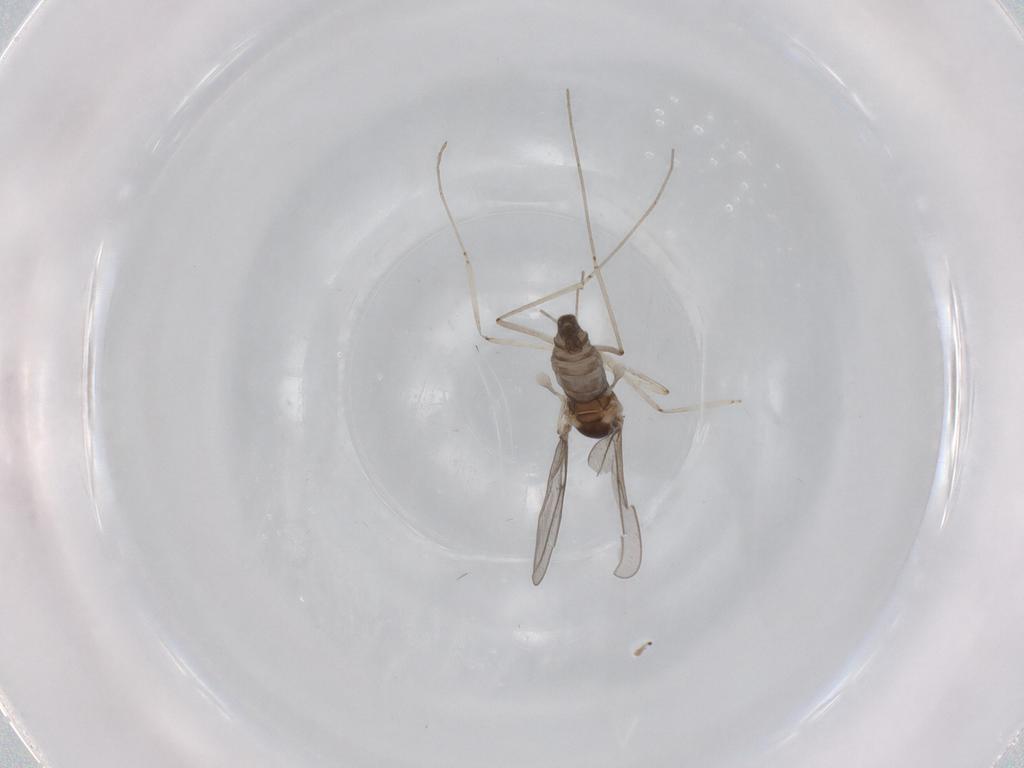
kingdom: Animalia
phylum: Arthropoda
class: Insecta
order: Diptera
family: Cecidomyiidae
